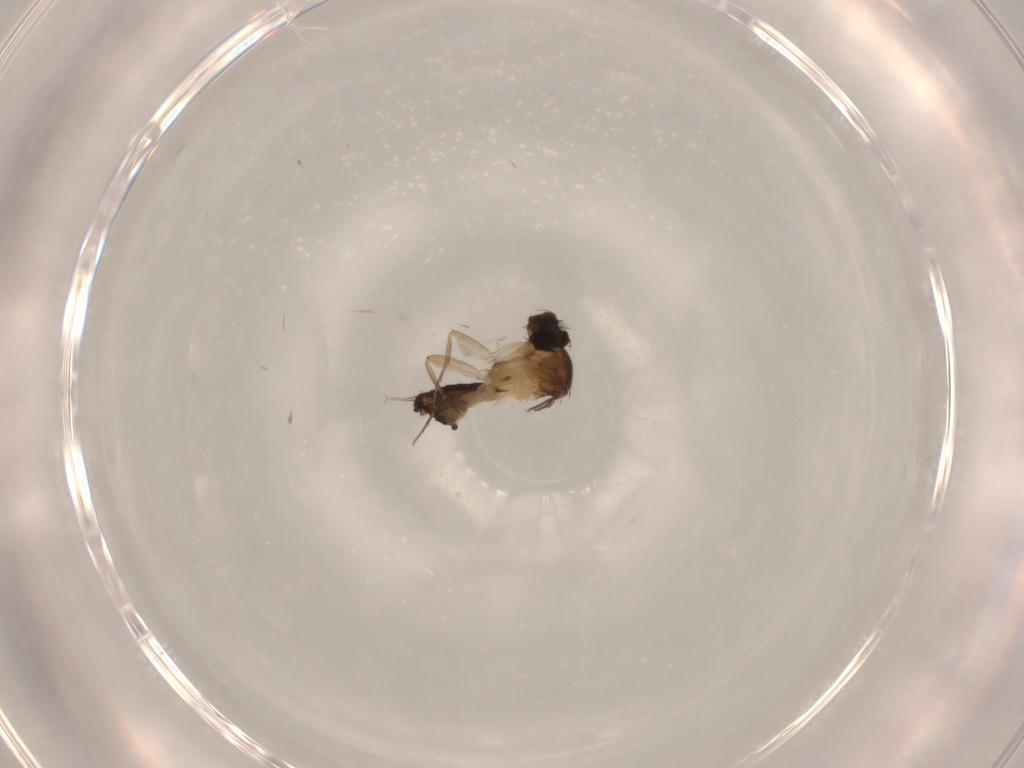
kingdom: Animalia
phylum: Arthropoda
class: Insecta
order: Diptera
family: Phoridae
